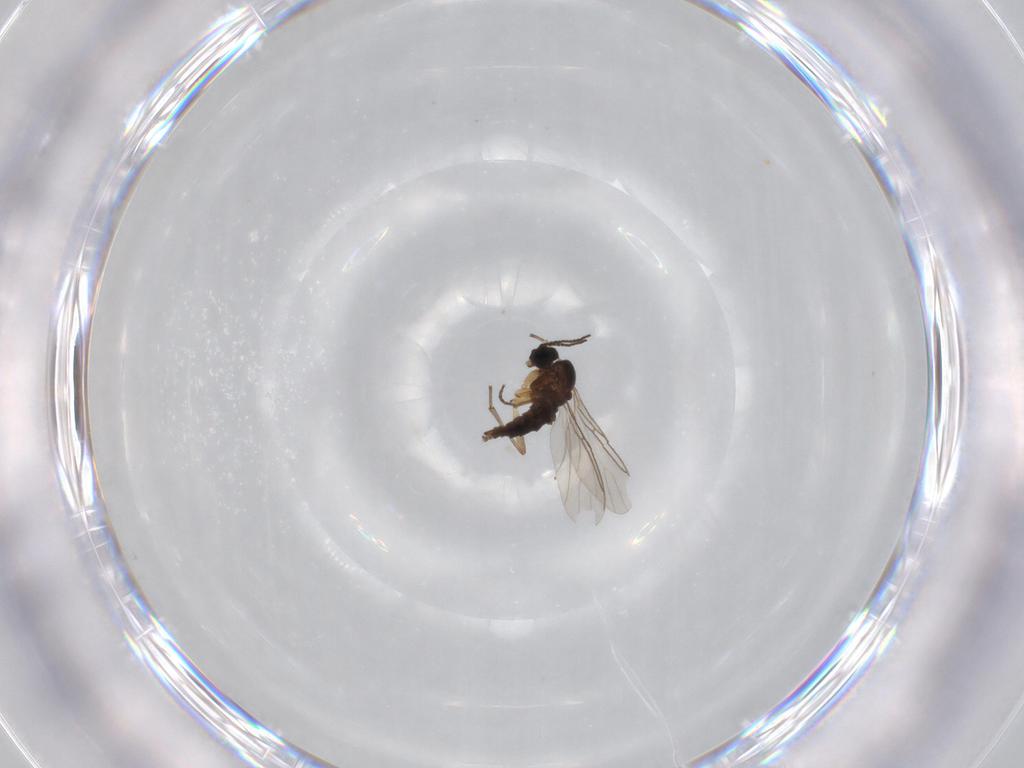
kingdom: Animalia
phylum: Arthropoda
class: Insecta
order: Diptera
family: Sciaridae
